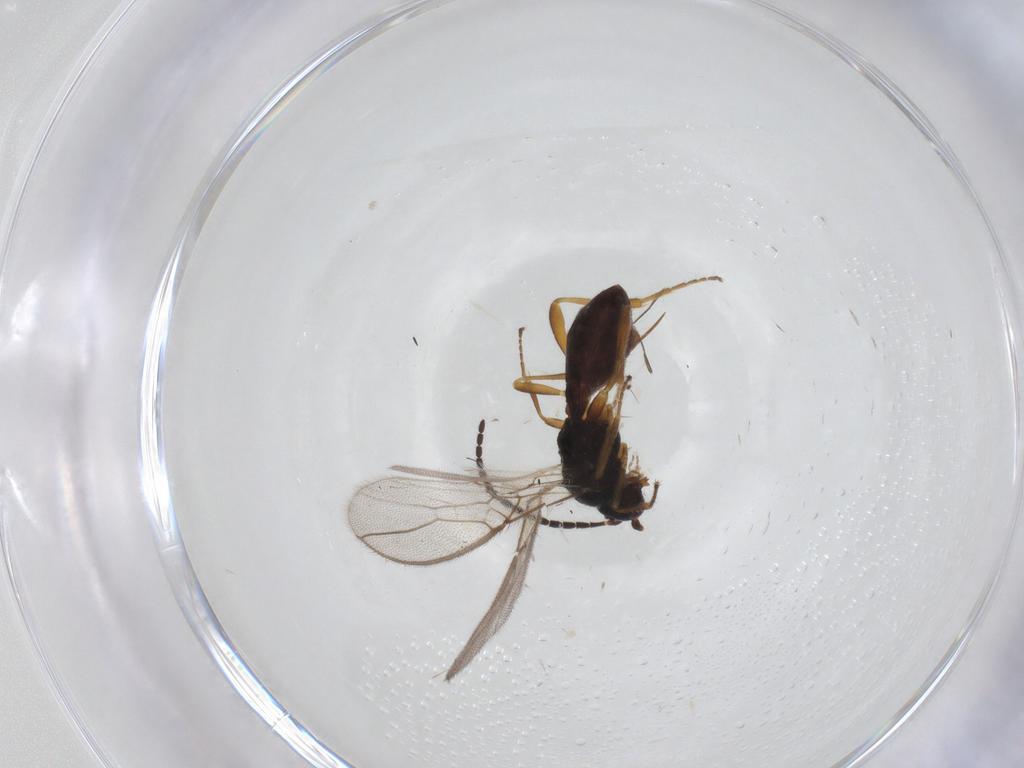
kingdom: Animalia
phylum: Arthropoda
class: Insecta
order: Hymenoptera
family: Braconidae
